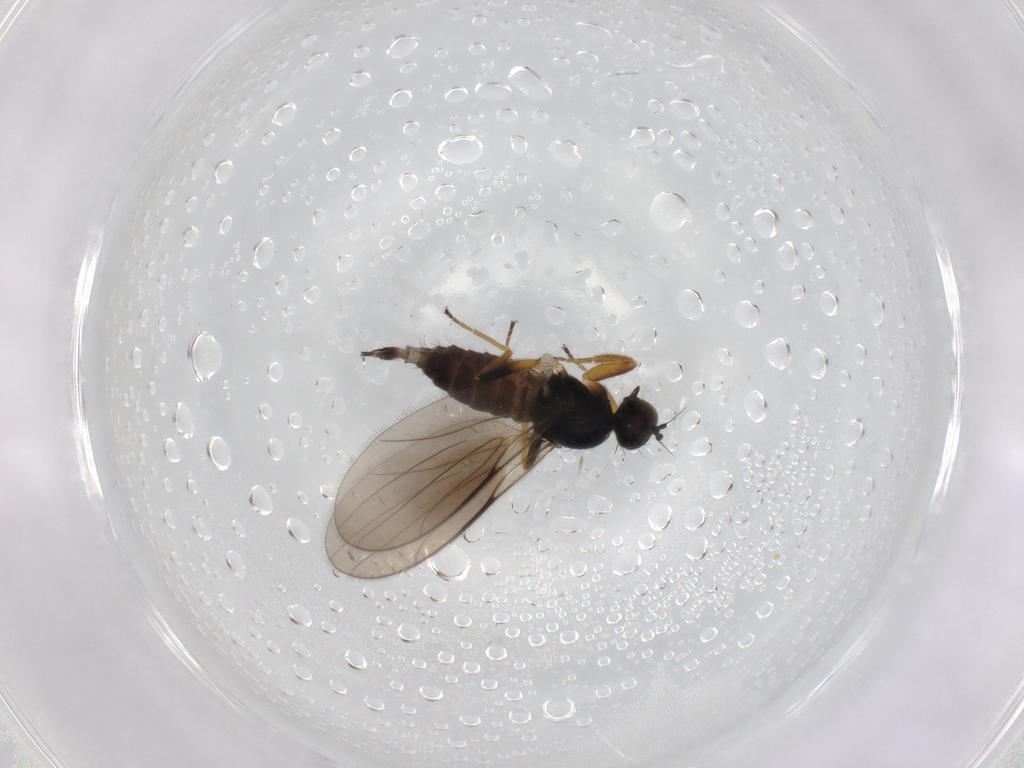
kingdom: Animalia
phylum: Arthropoda
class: Insecta
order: Diptera
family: Hybotidae
